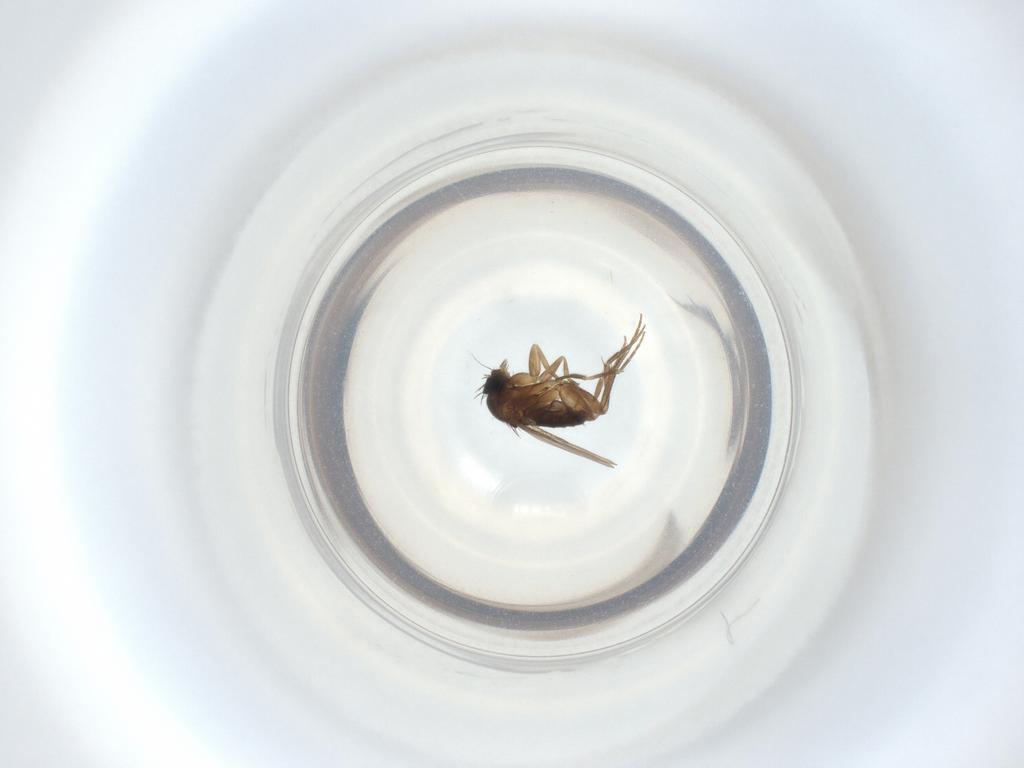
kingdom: Animalia
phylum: Arthropoda
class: Insecta
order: Diptera
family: Phoridae
